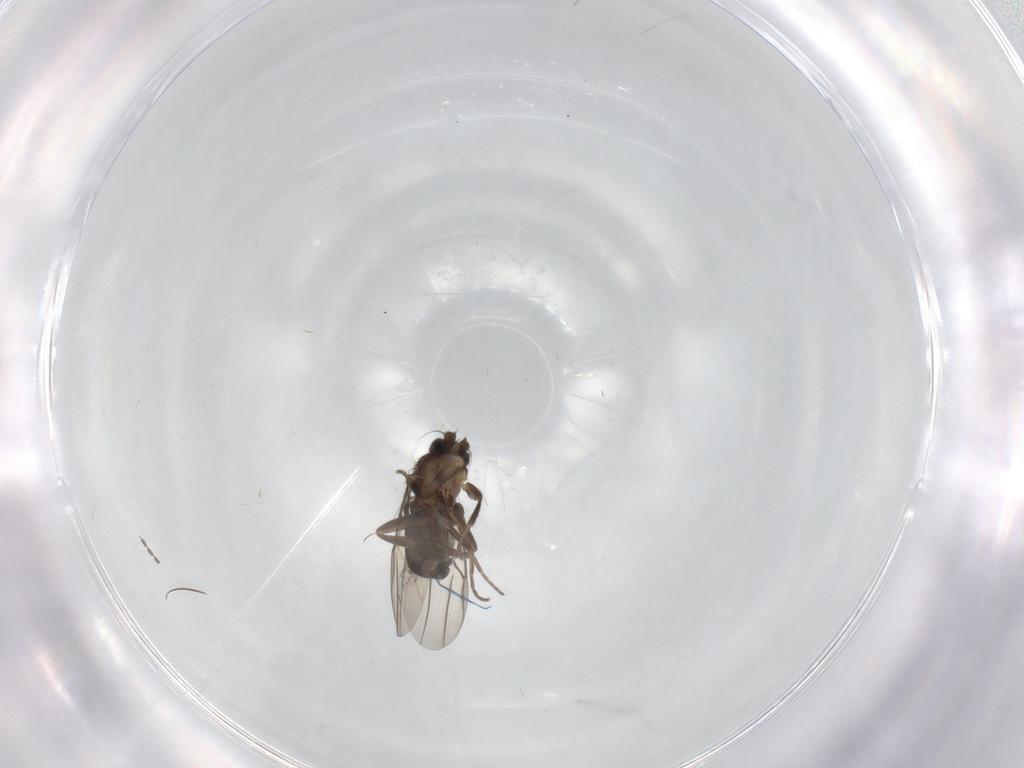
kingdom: Animalia
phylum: Arthropoda
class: Insecta
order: Diptera
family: Phoridae
